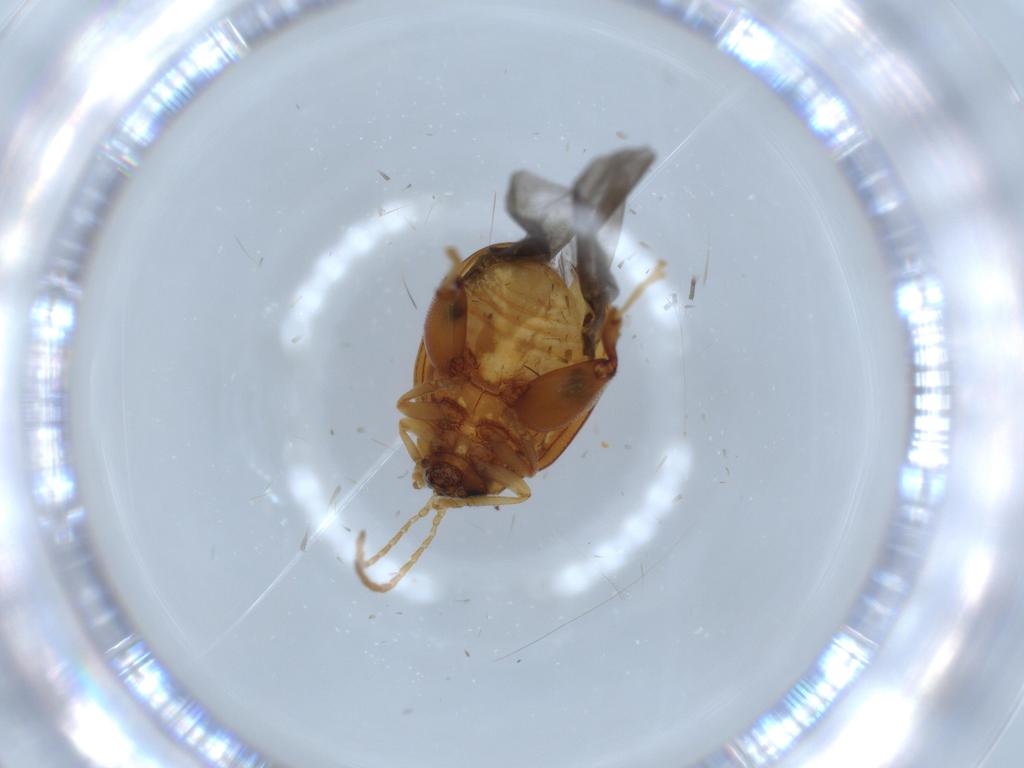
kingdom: Animalia
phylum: Arthropoda
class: Insecta
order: Coleoptera
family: Chrysomelidae
